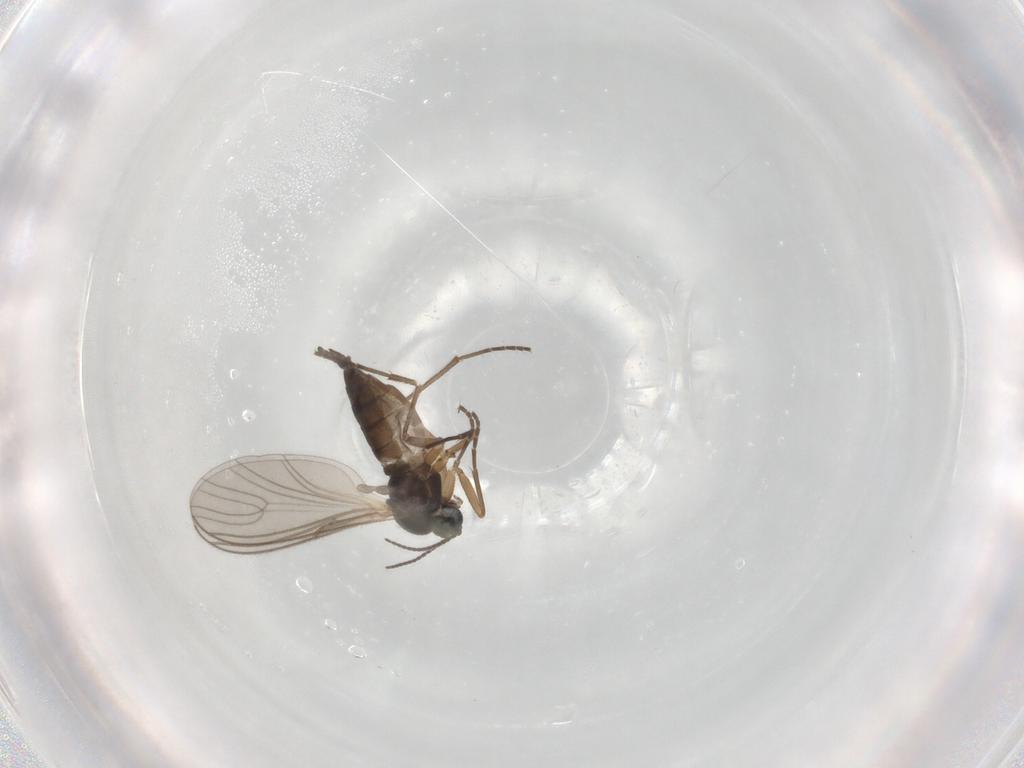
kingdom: Animalia
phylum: Arthropoda
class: Insecta
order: Diptera
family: Sciaridae
